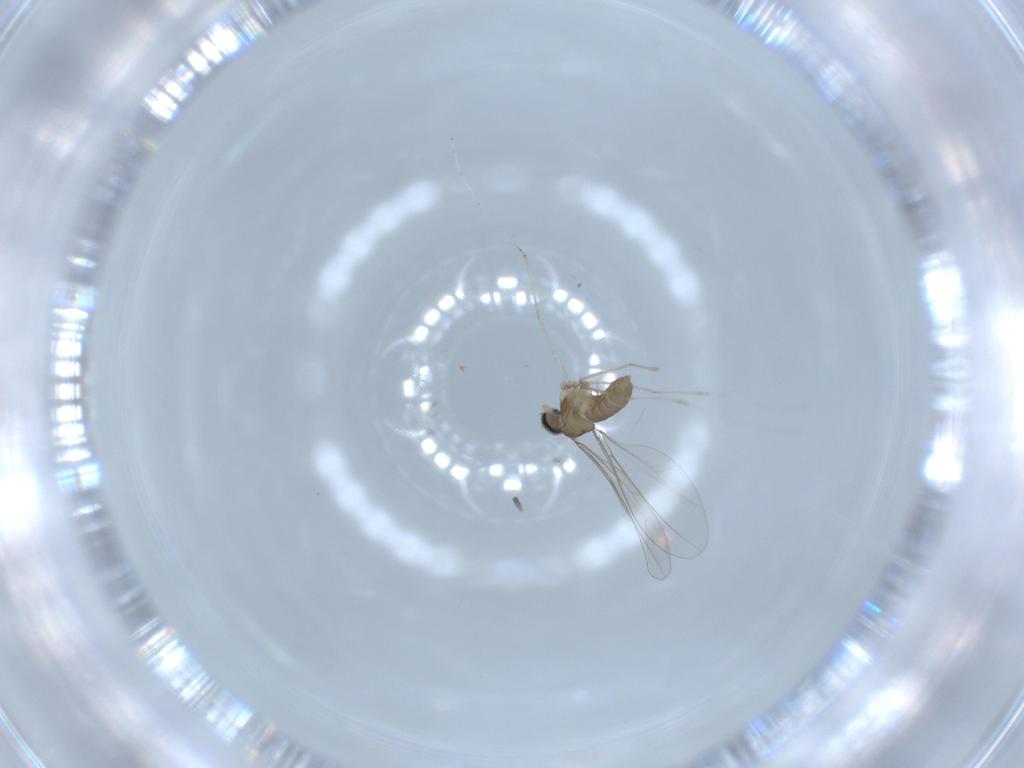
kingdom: Animalia
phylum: Arthropoda
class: Insecta
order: Diptera
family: Cecidomyiidae
